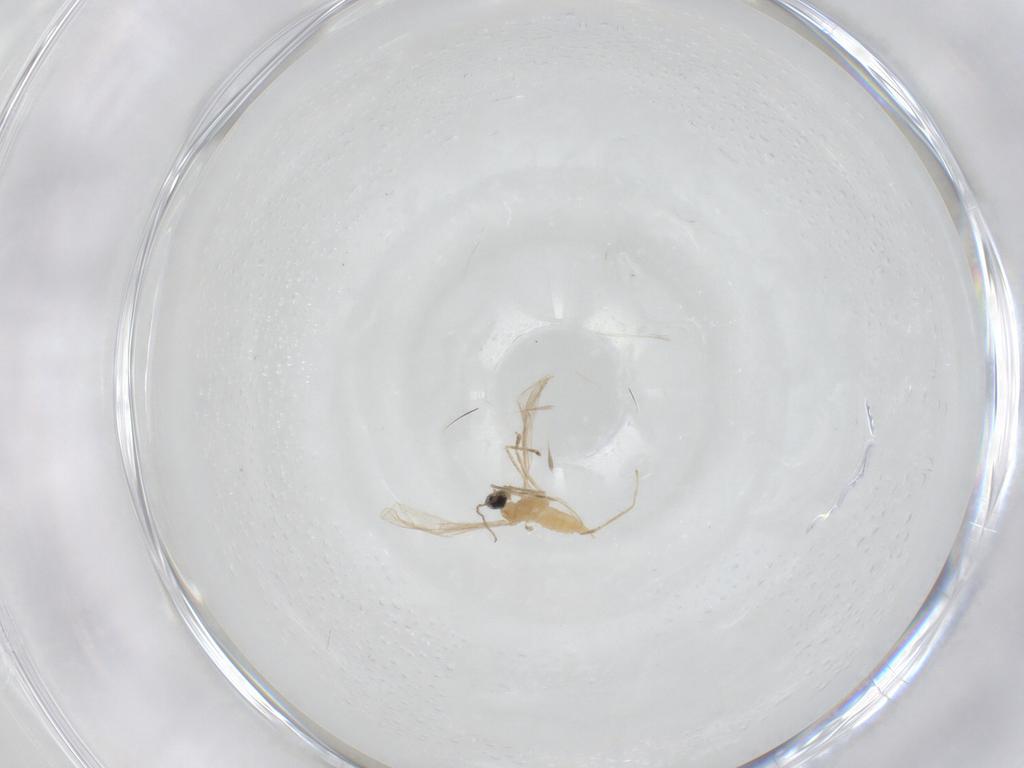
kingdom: Animalia
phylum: Arthropoda
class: Insecta
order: Diptera
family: Cecidomyiidae
